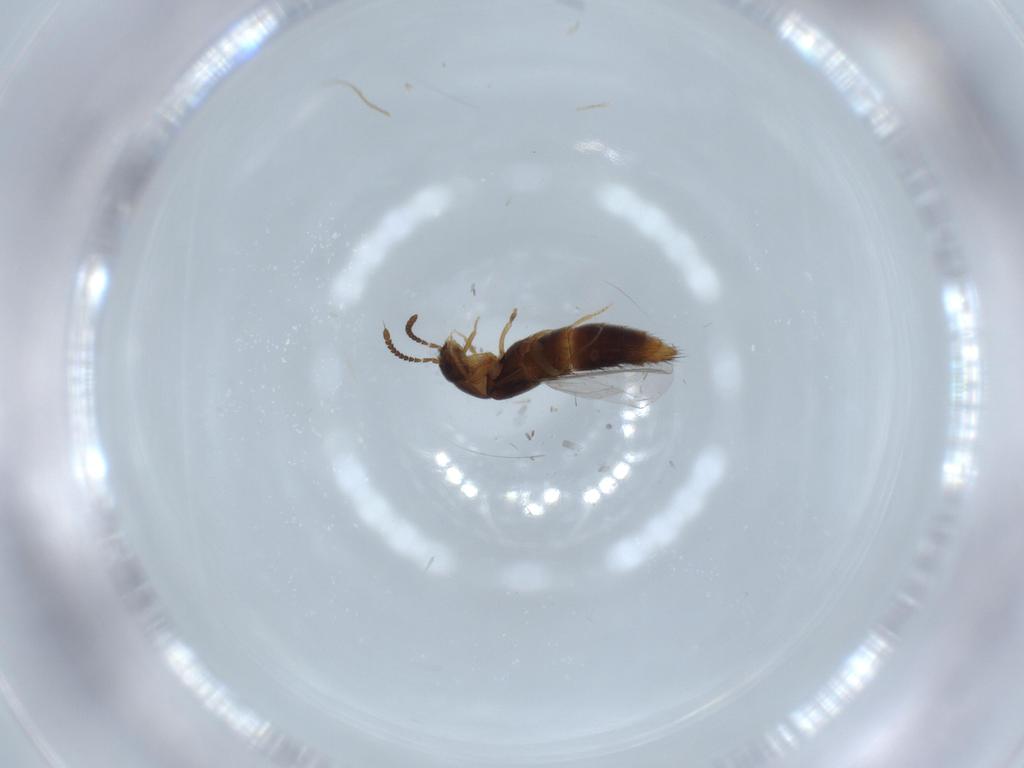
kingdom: Animalia
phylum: Arthropoda
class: Insecta
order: Coleoptera
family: Staphylinidae
